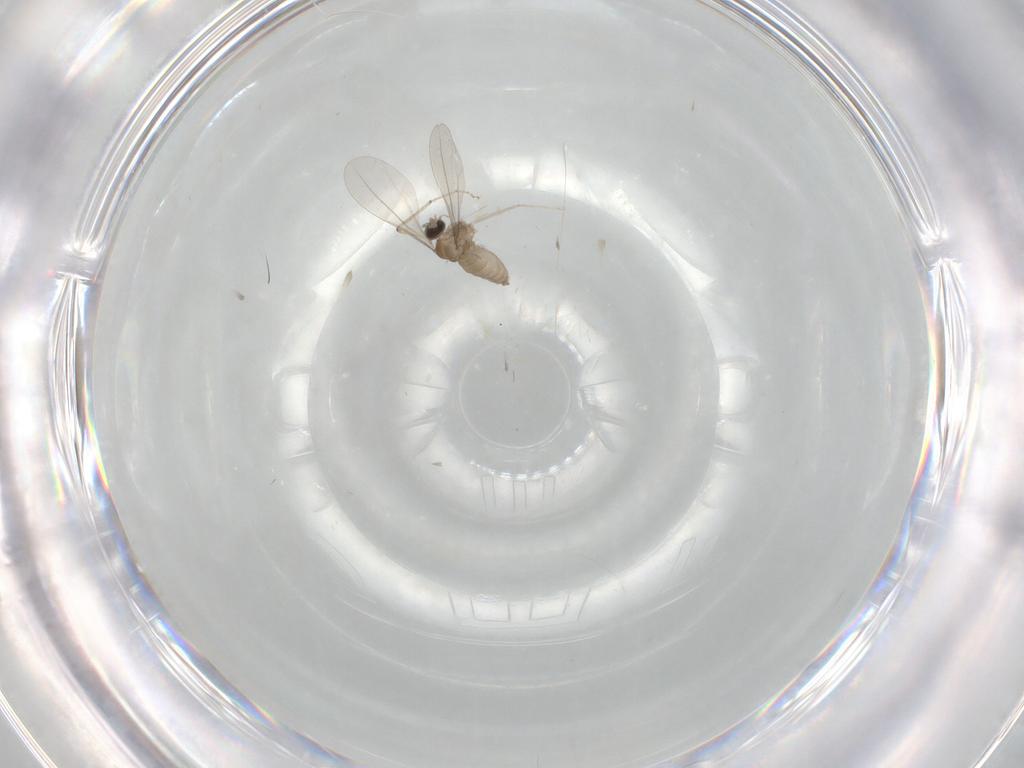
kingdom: Animalia
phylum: Arthropoda
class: Insecta
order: Diptera
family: Cecidomyiidae
